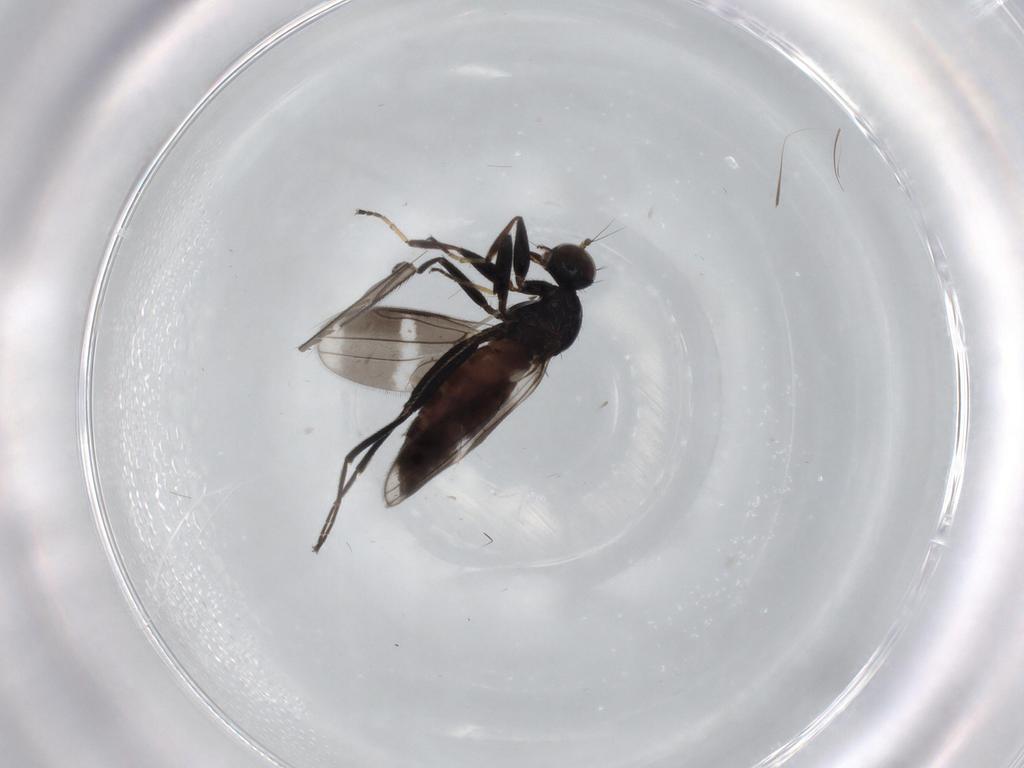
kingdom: Animalia
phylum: Arthropoda
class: Insecta
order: Diptera
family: Hybotidae
